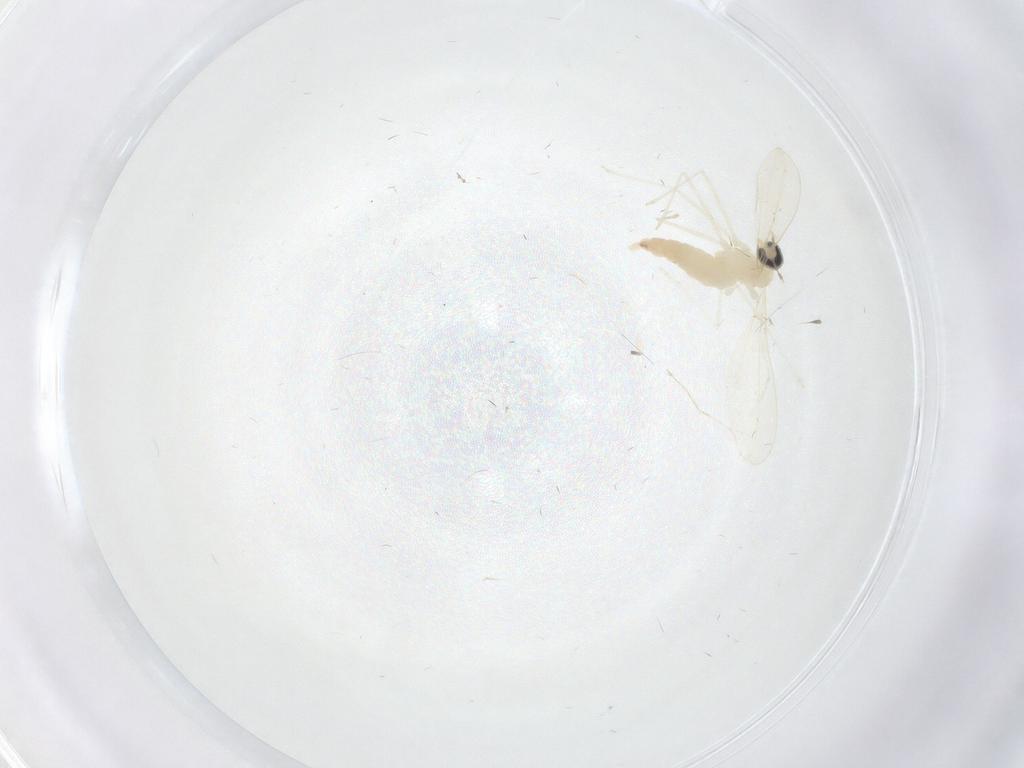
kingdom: Animalia
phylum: Arthropoda
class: Insecta
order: Diptera
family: Cecidomyiidae
